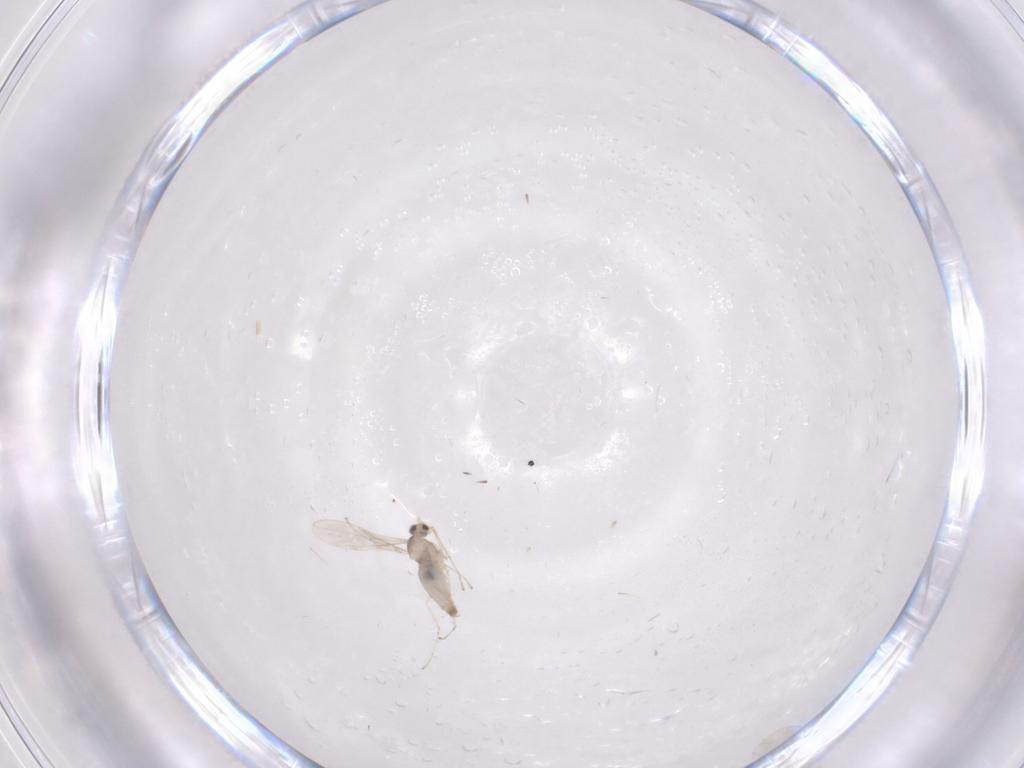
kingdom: Animalia
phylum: Arthropoda
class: Insecta
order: Diptera
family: Cecidomyiidae
